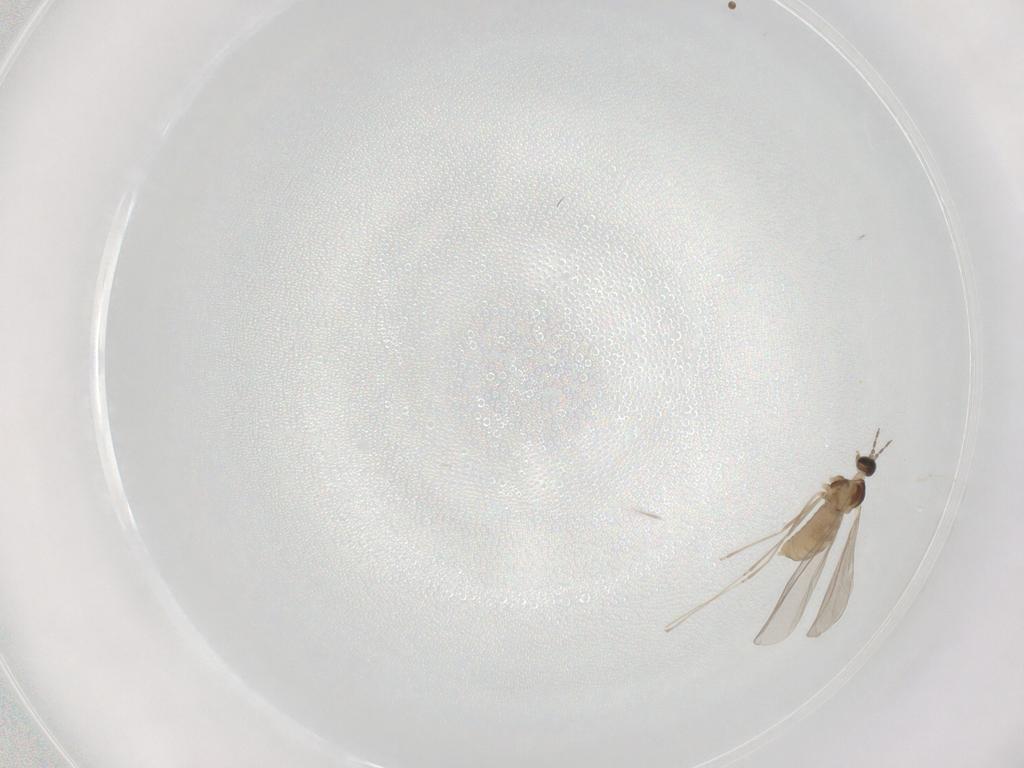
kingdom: Animalia
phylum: Arthropoda
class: Insecta
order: Diptera
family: Cecidomyiidae
